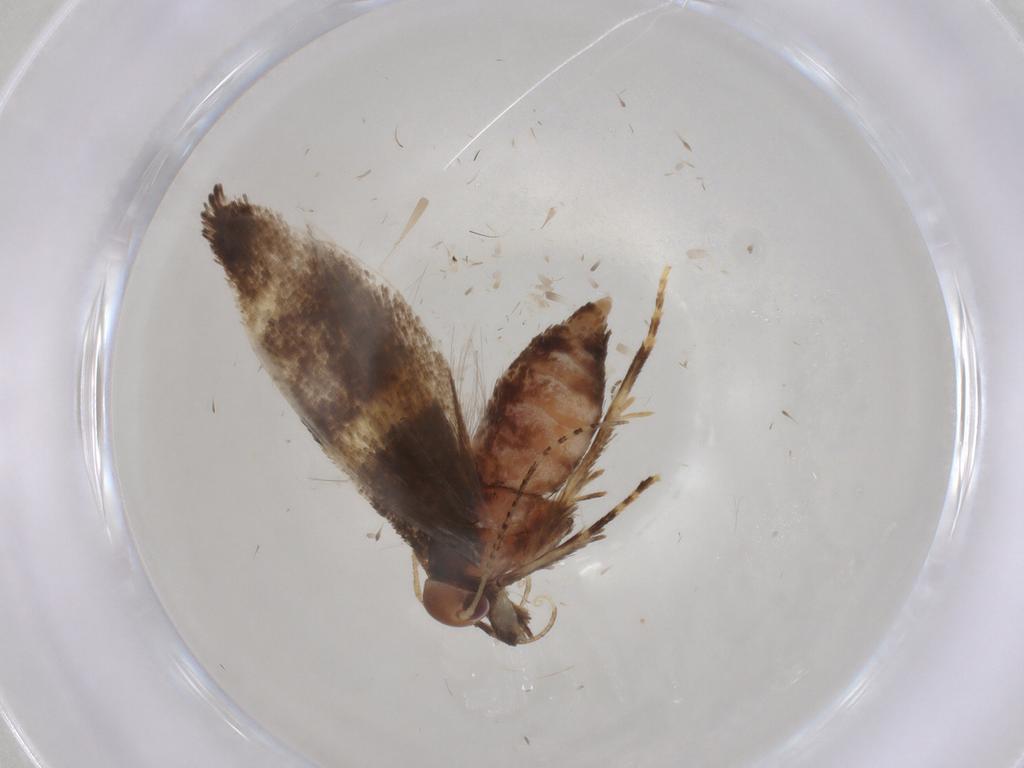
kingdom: Animalia
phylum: Arthropoda
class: Insecta
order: Lepidoptera
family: Oecophoridae
